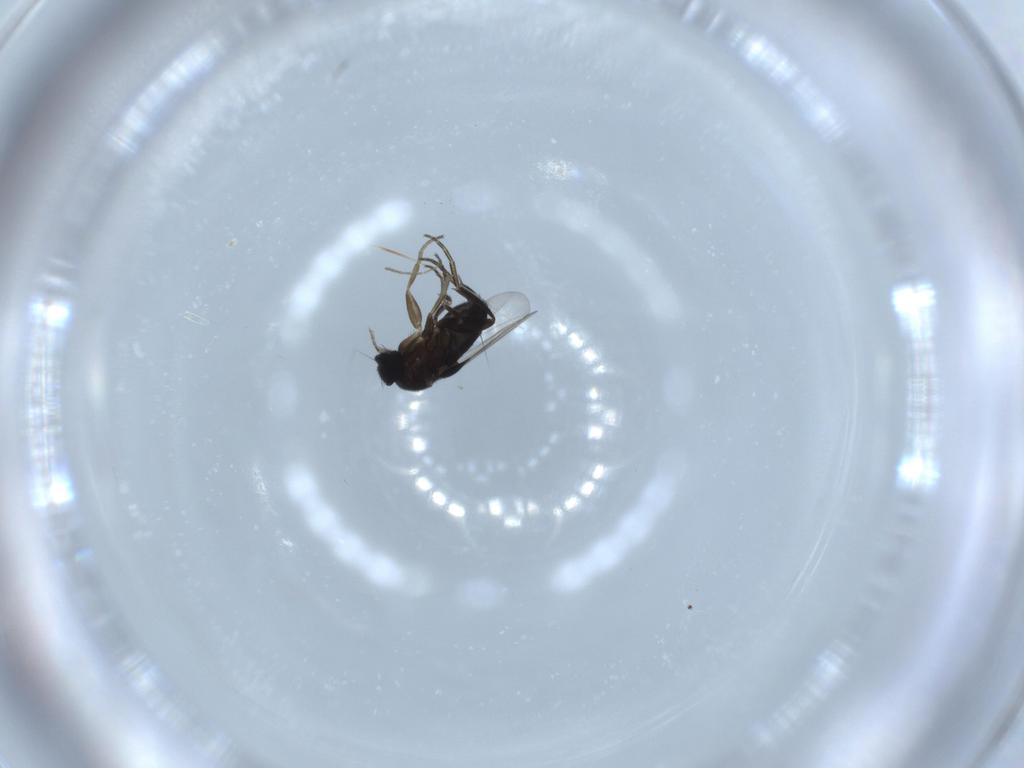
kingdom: Animalia
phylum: Arthropoda
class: Insecta
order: Diptera
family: Phoridae
